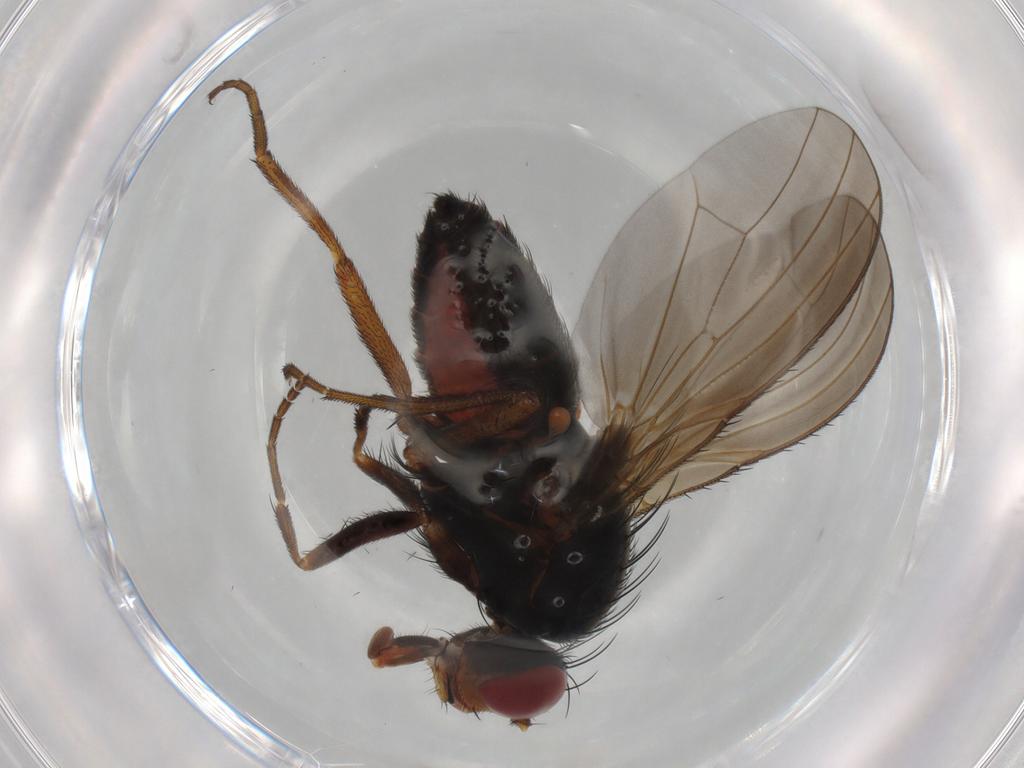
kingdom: Animalia
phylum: Arthropoda
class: Insecta
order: Diptera
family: Heleomyzidae
